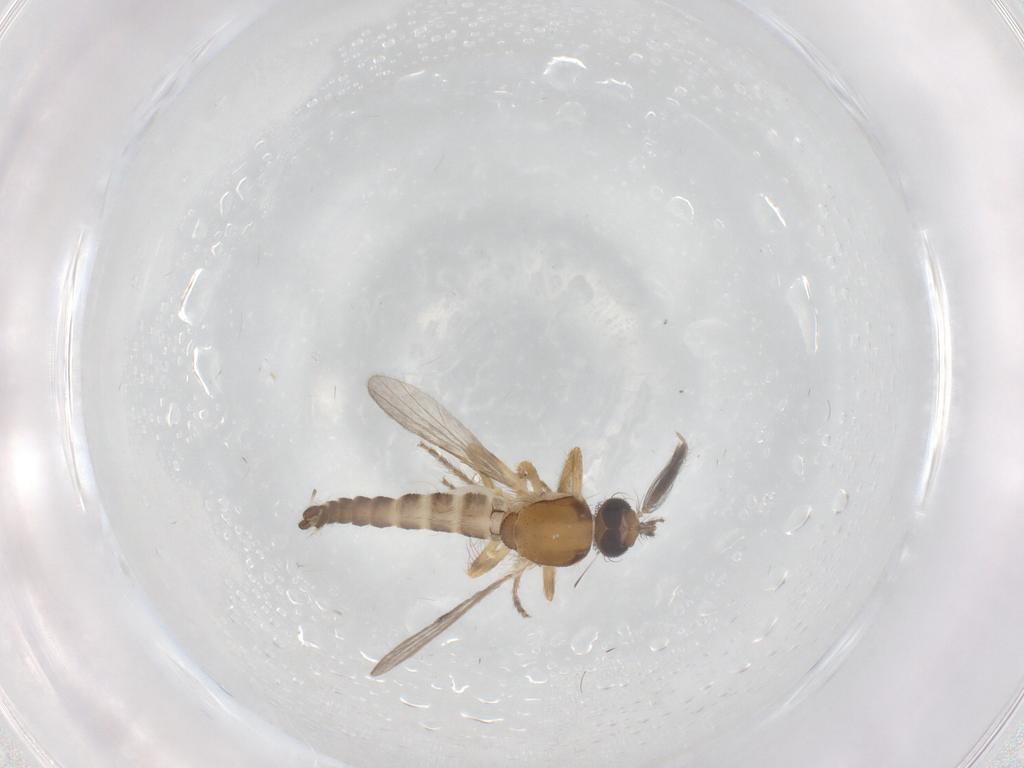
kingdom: Animalia
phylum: Arthropoda
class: Insecta
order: Diptera
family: Ceratopogonidae
